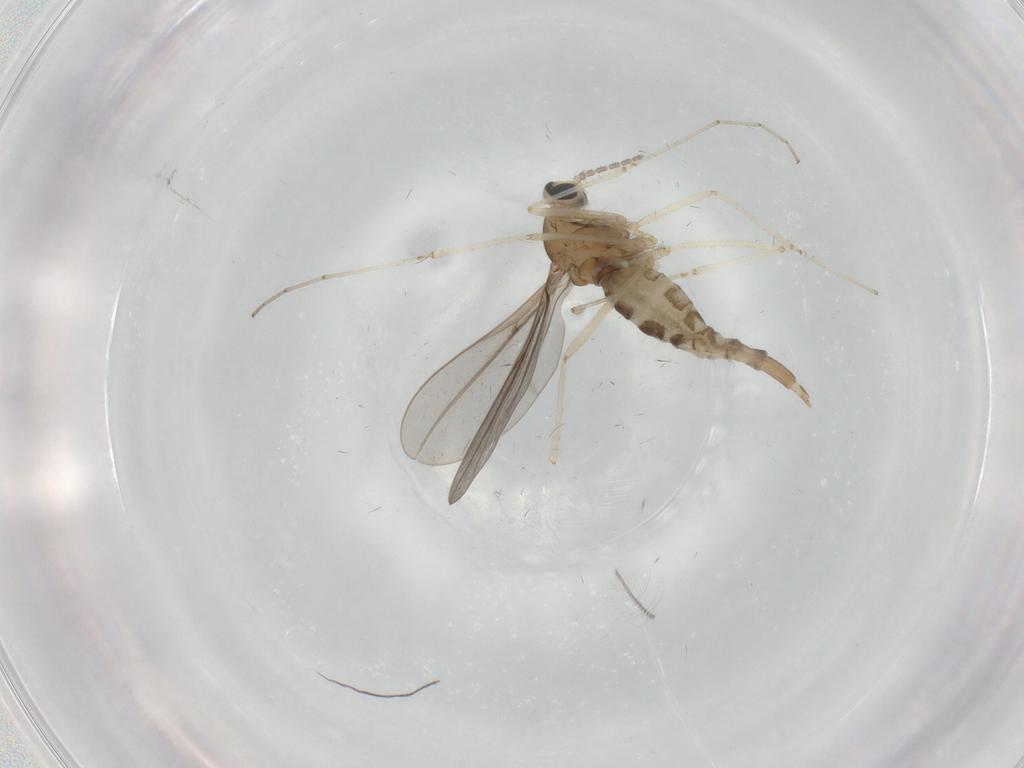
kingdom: Animalia
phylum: Arthropoda
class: Insecta
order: Diptera
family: Cecidomyiidae
